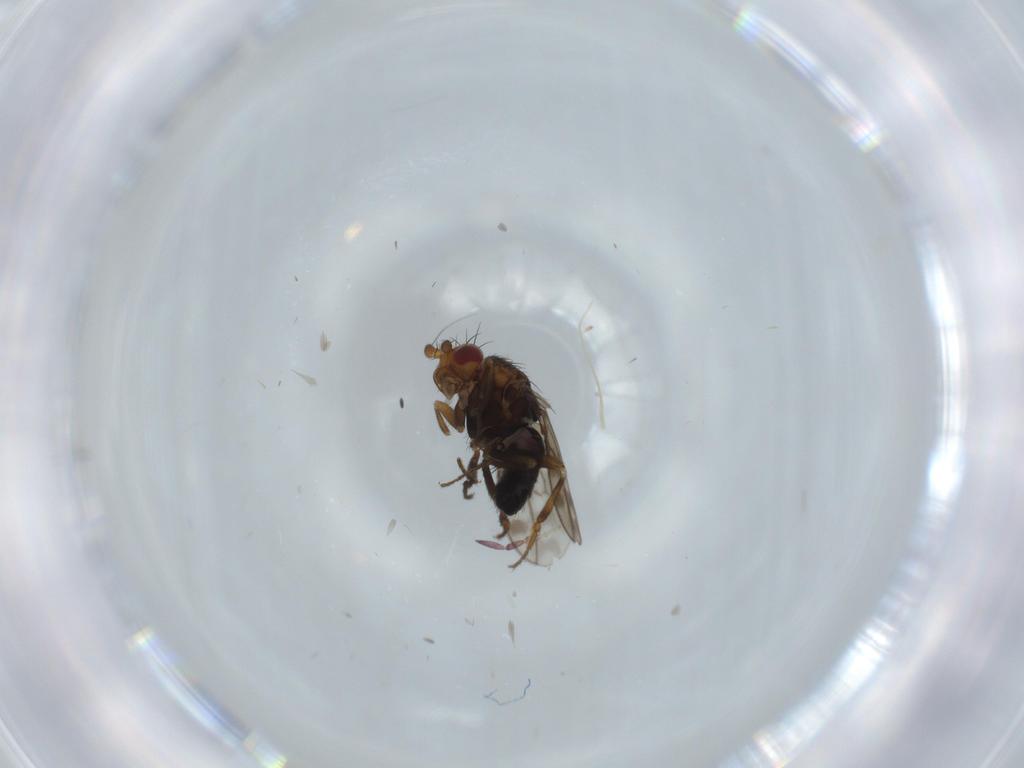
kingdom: Animalia
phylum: Arthropoda
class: Insecta
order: Diptera
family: Sphaeroceridae
